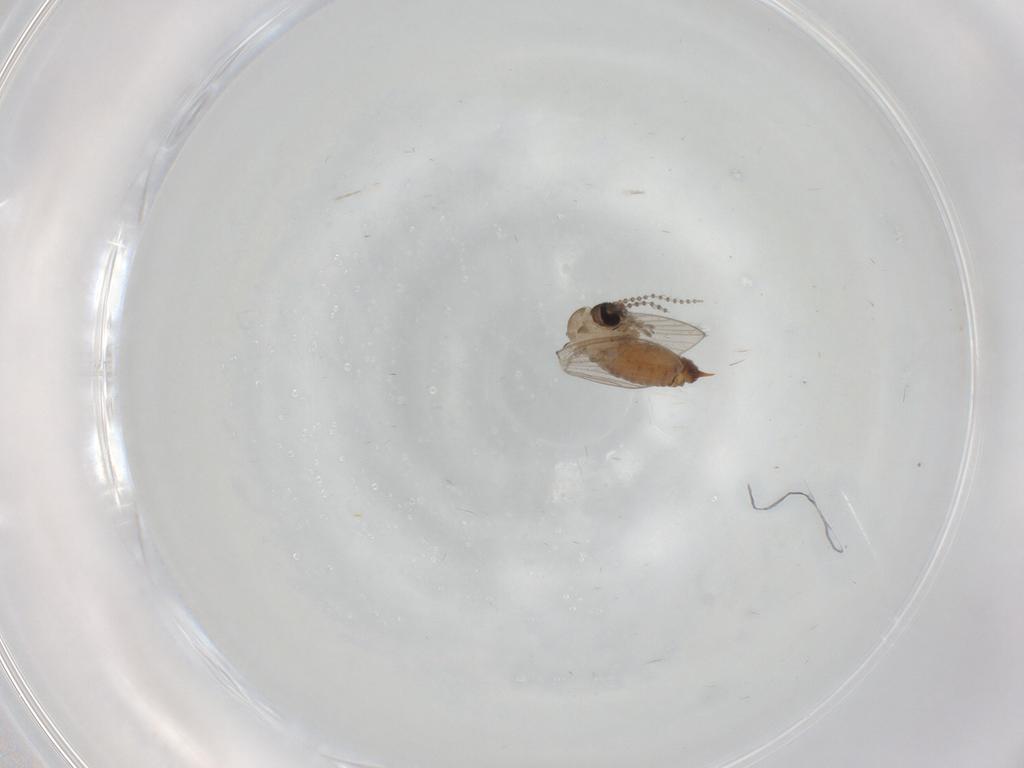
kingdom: Animalia
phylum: Arthropoda
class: Insecta
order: Diptera
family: Psychodidae
